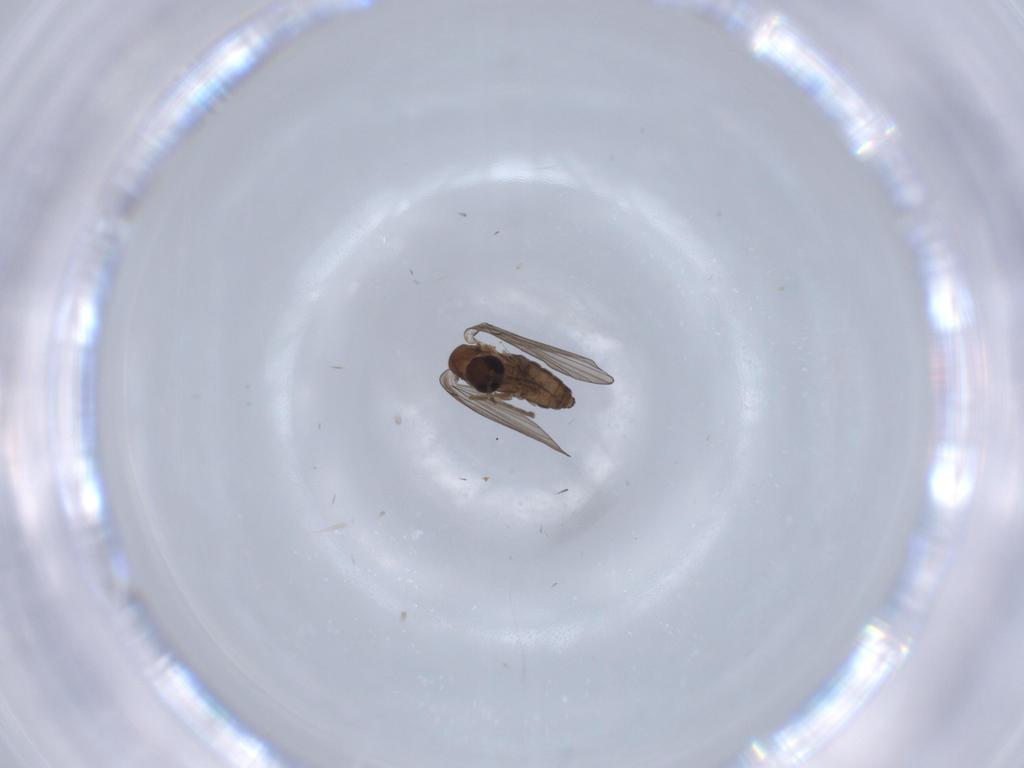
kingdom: Animalia
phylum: Arthropoda
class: Insecta
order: Diptera
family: Psychodidae
